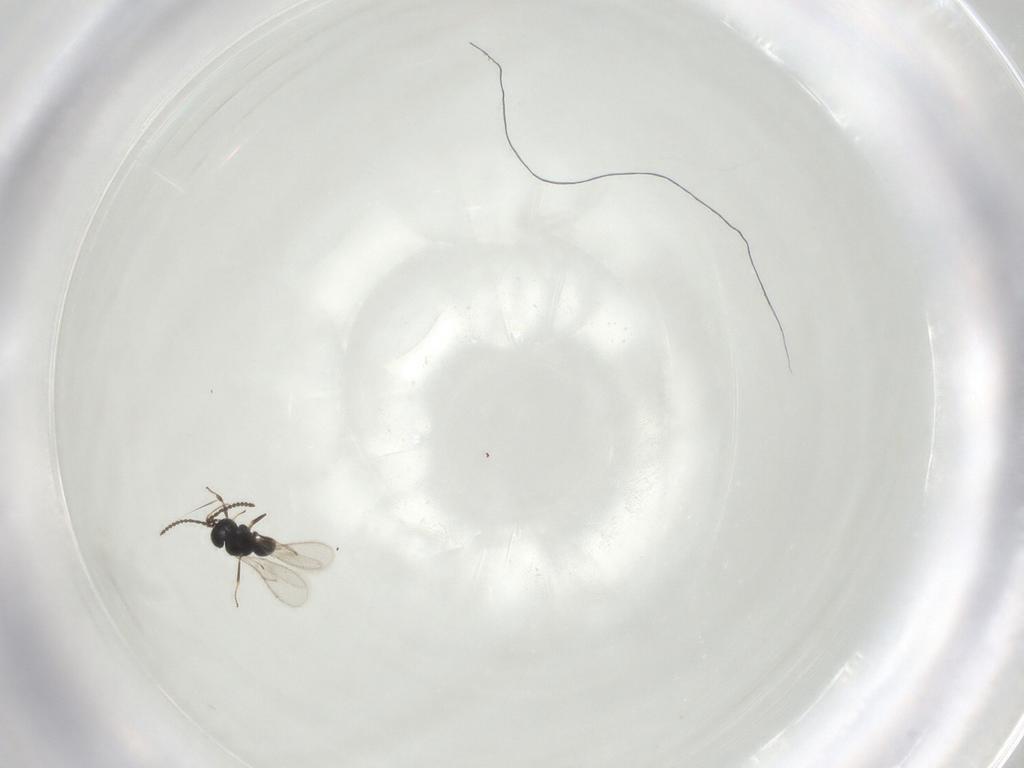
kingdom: Animalia
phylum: Arthropoda
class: Insecta
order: Hymenoptera
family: Scelionidae
